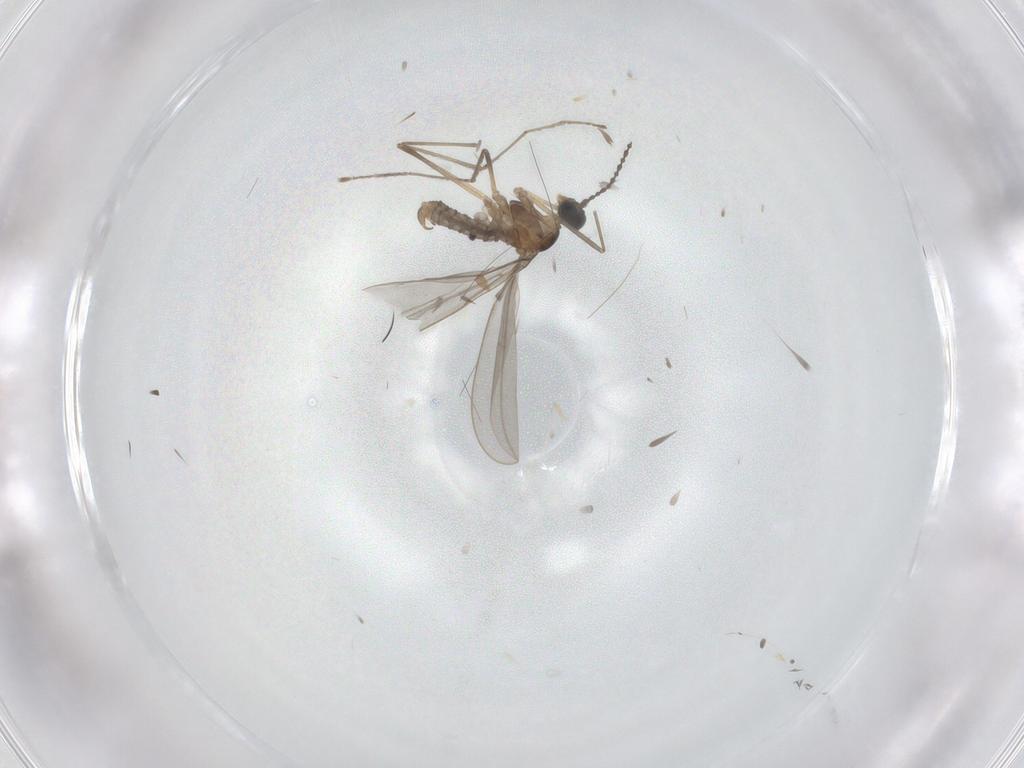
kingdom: Animalia
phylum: Arthropoda
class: Insecta
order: Diptera
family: Cecidomyiidae
